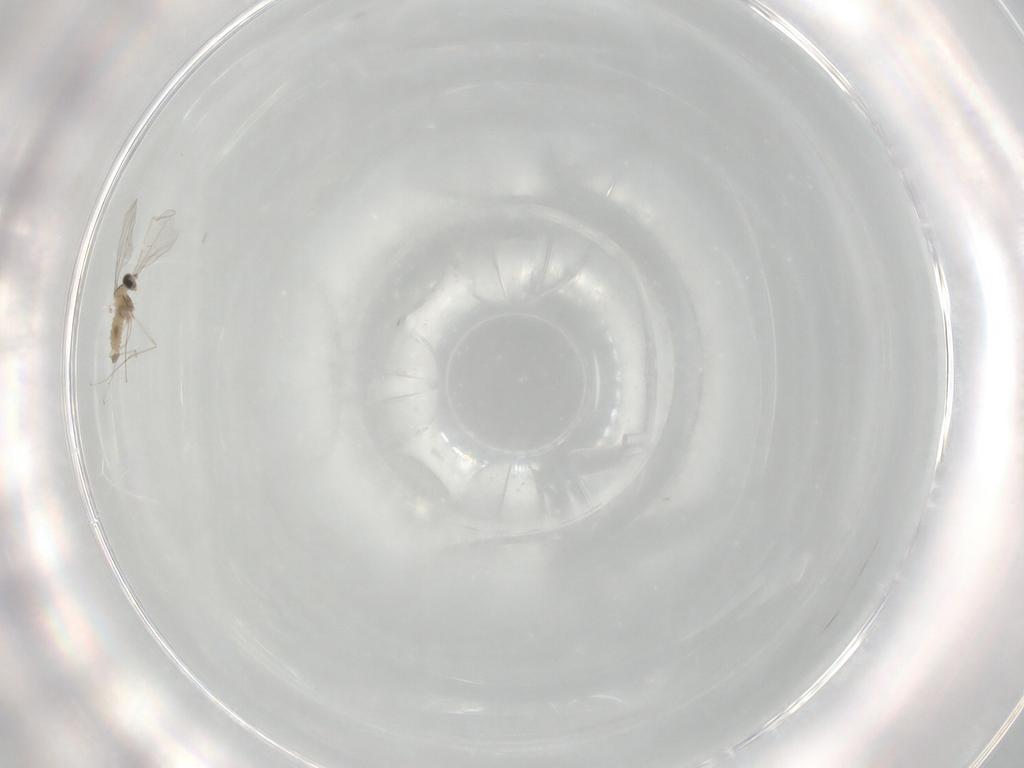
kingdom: Animalia
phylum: Arthropoda
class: Insecta
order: Diptera
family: Cecidomyiidae
